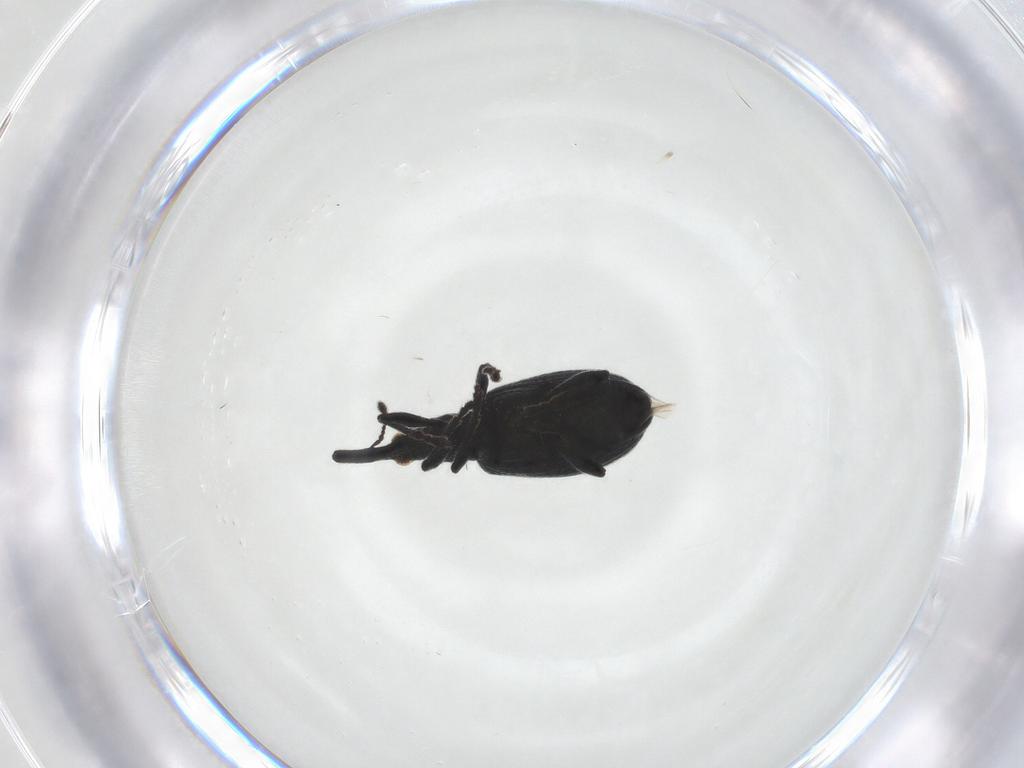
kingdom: Animalia
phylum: Arthropoda
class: Insecta
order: Coleoptera
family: Brentidae
